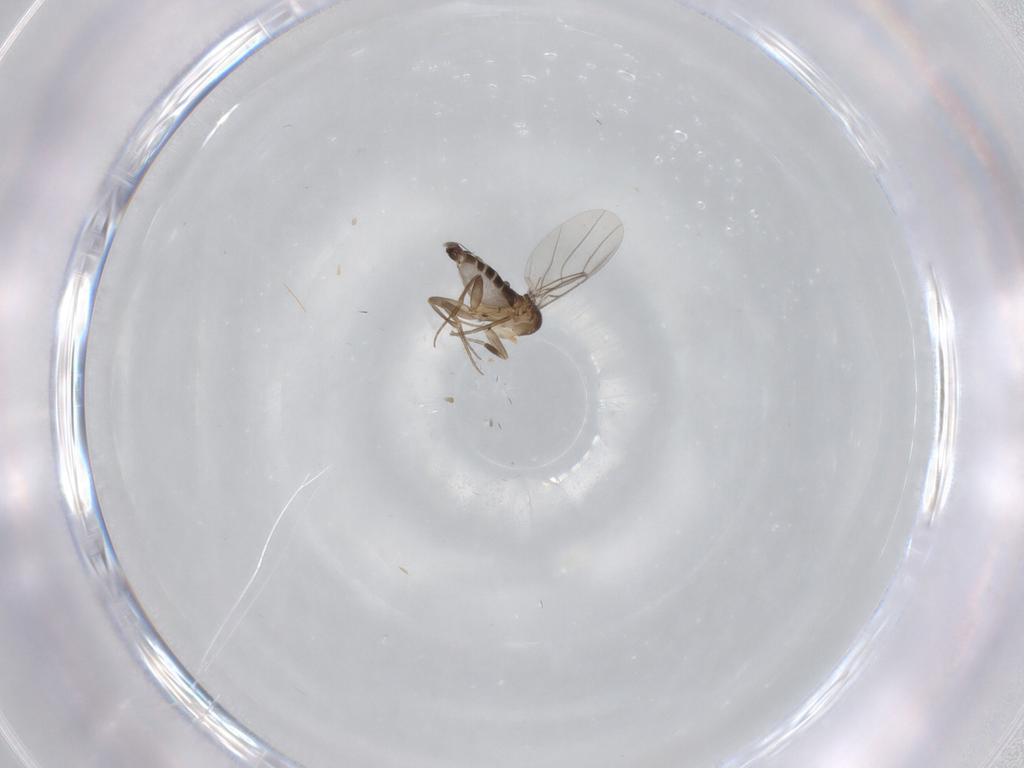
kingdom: Animalia
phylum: Arthropoda
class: Insecta
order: Diptera
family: Phoridae
